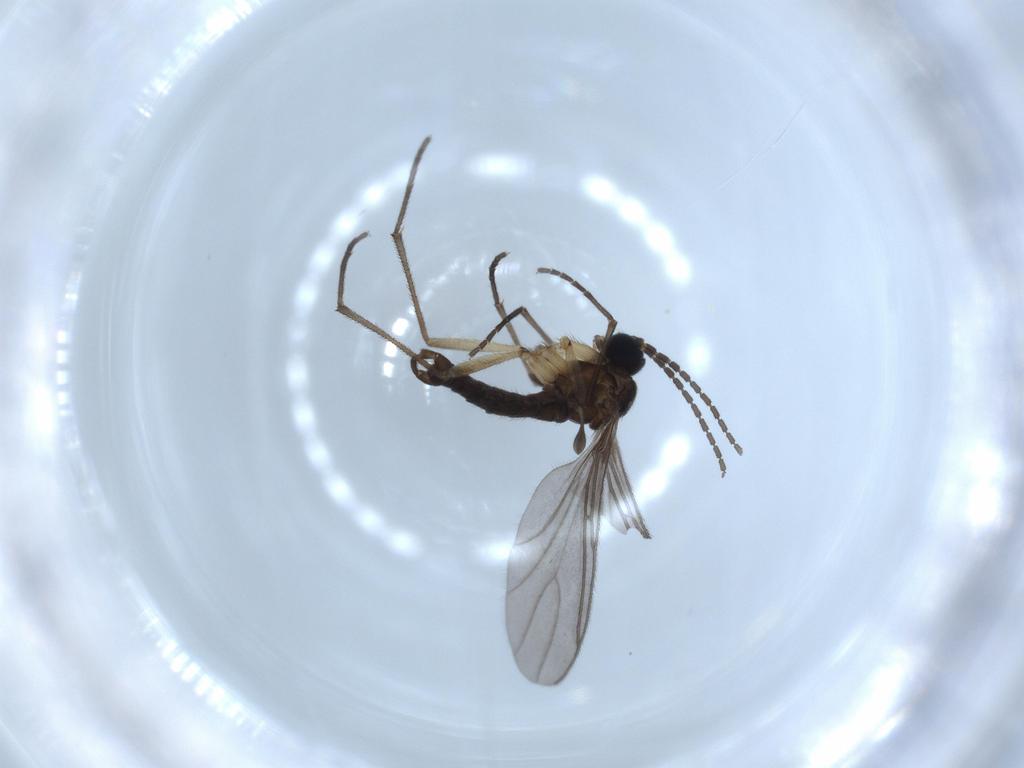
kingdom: Animalia
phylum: Arthropoda
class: Insecta
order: Diptera
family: Sciaridae
